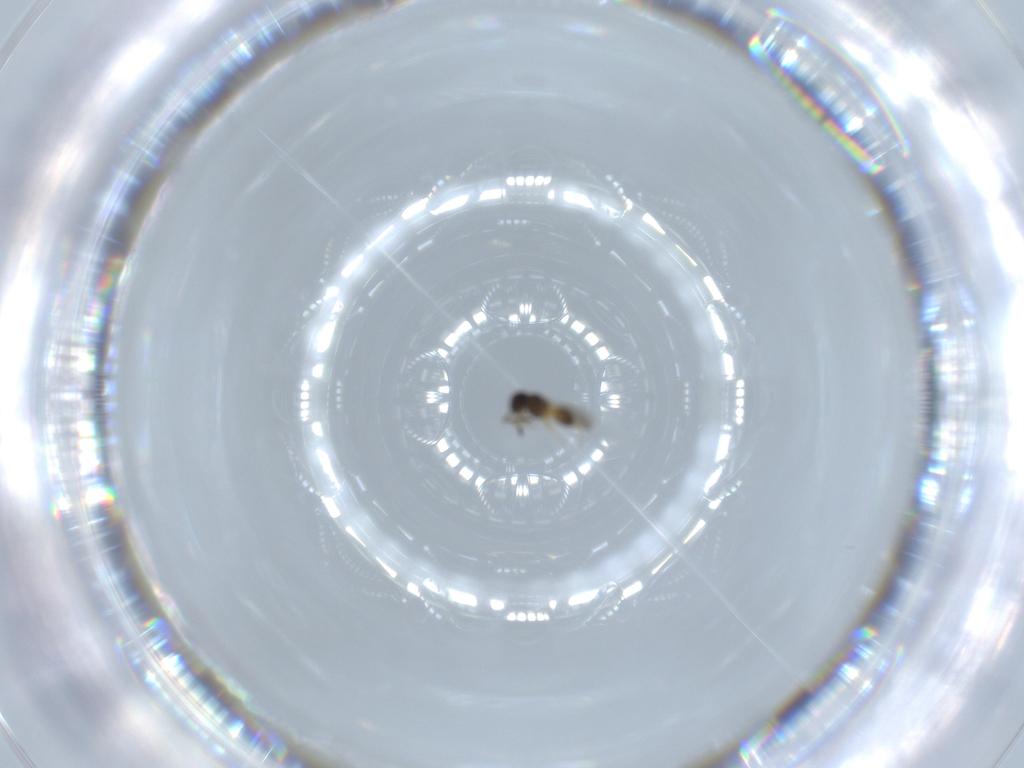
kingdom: Animalia
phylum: Arthropoda
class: Insecta
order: Hymenoptera
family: Scelionidae
